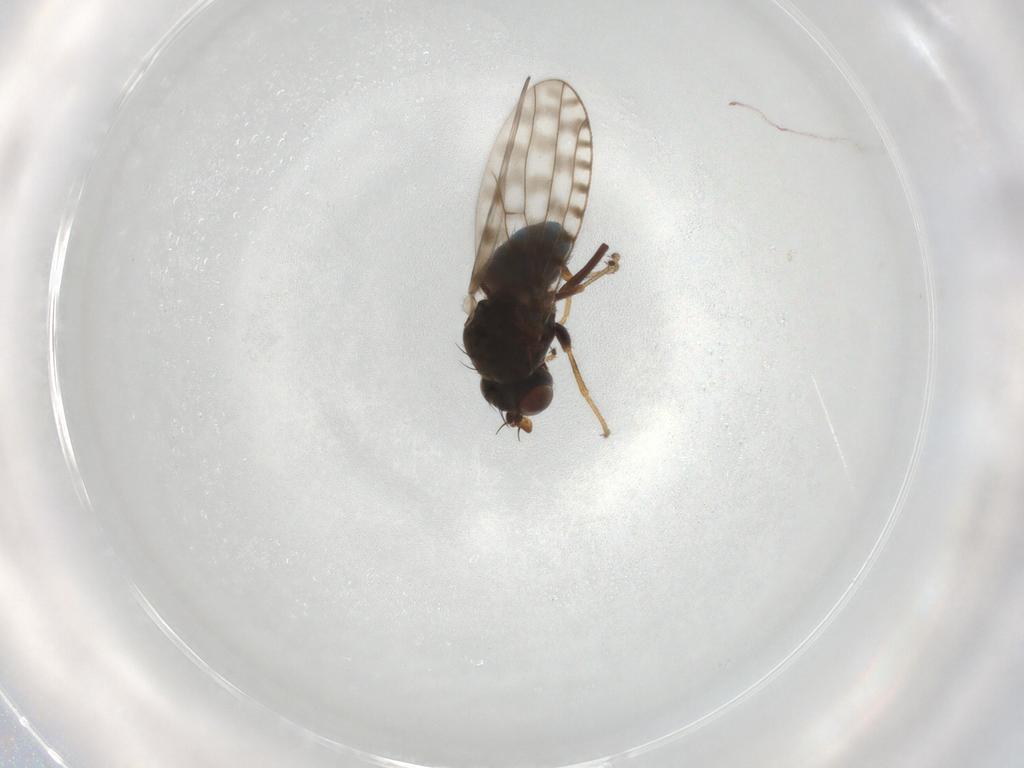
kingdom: Animalia
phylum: Arthropoda
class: Insecta
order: Diptera
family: Ephydridae
